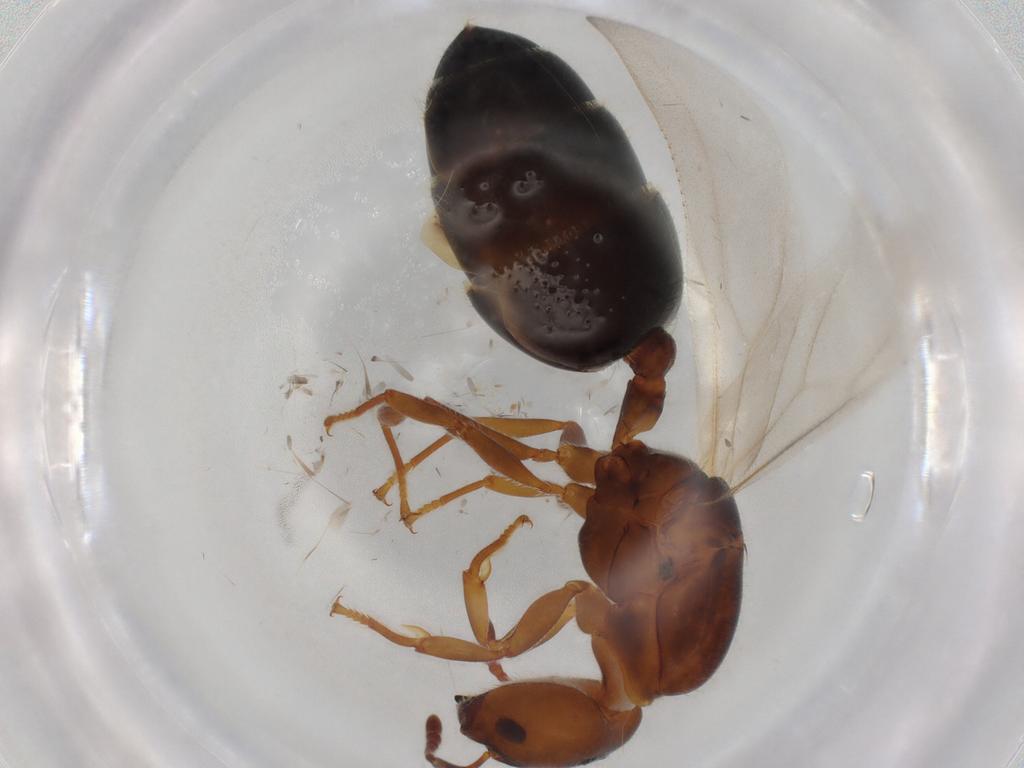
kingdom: Animalia
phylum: Arthropoda
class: Insecta
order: Hymenoptera
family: Formicidae
